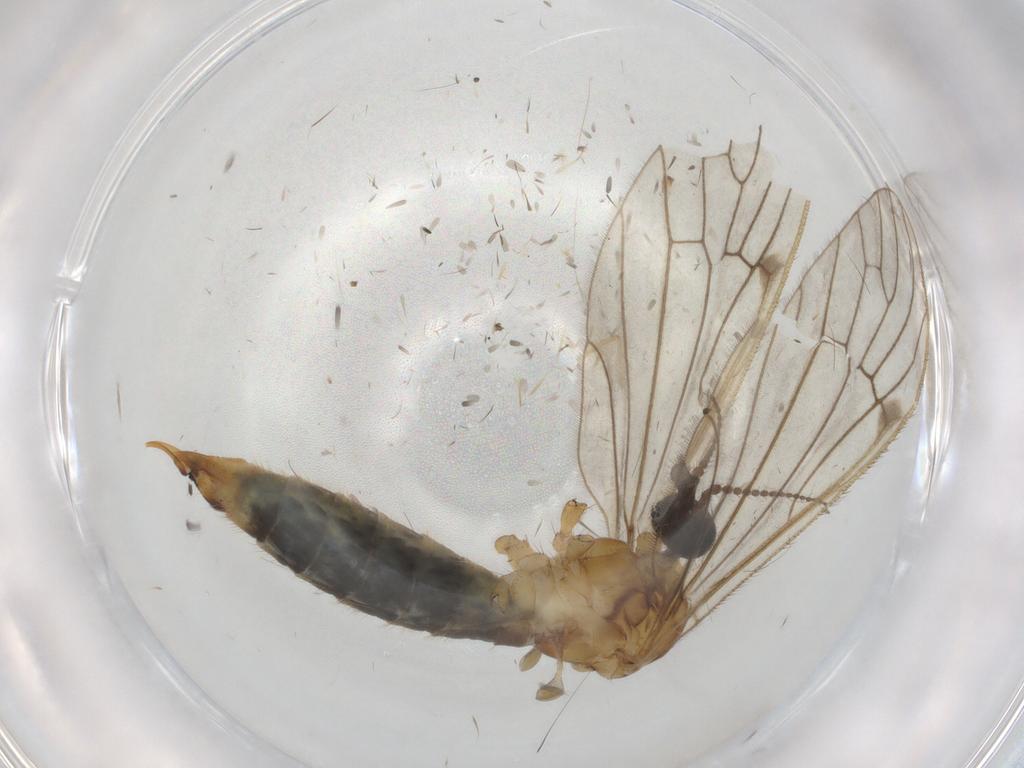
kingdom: Animalia
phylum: Arthropoda
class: Insecta
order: Diptera
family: Limoniidae
